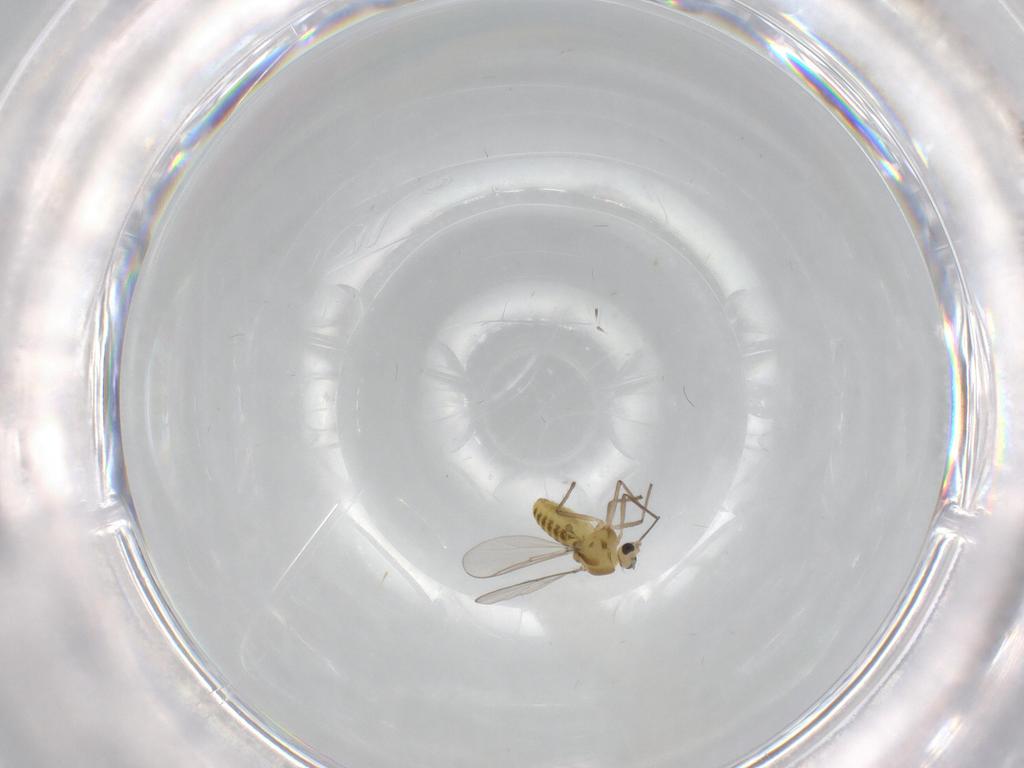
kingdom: Animalia
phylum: Arthropoda
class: Insecta
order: Diptera
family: Chironomidae
